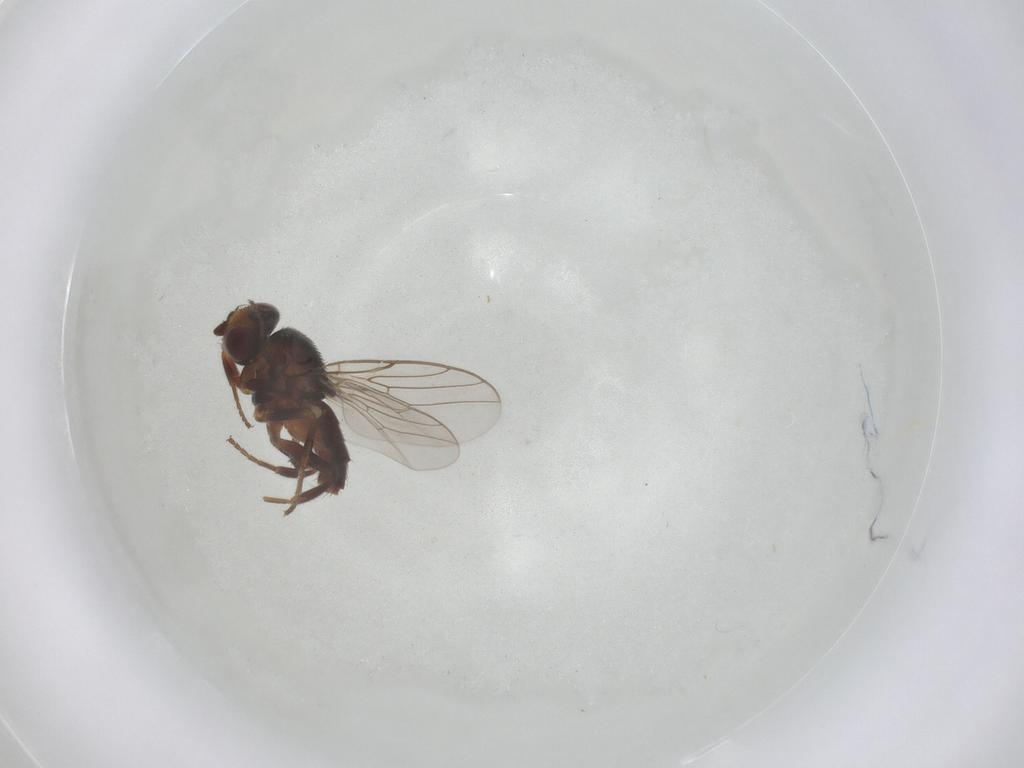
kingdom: Animalia
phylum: Arthropoda
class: Insecta
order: Diptera
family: Chloropidae
